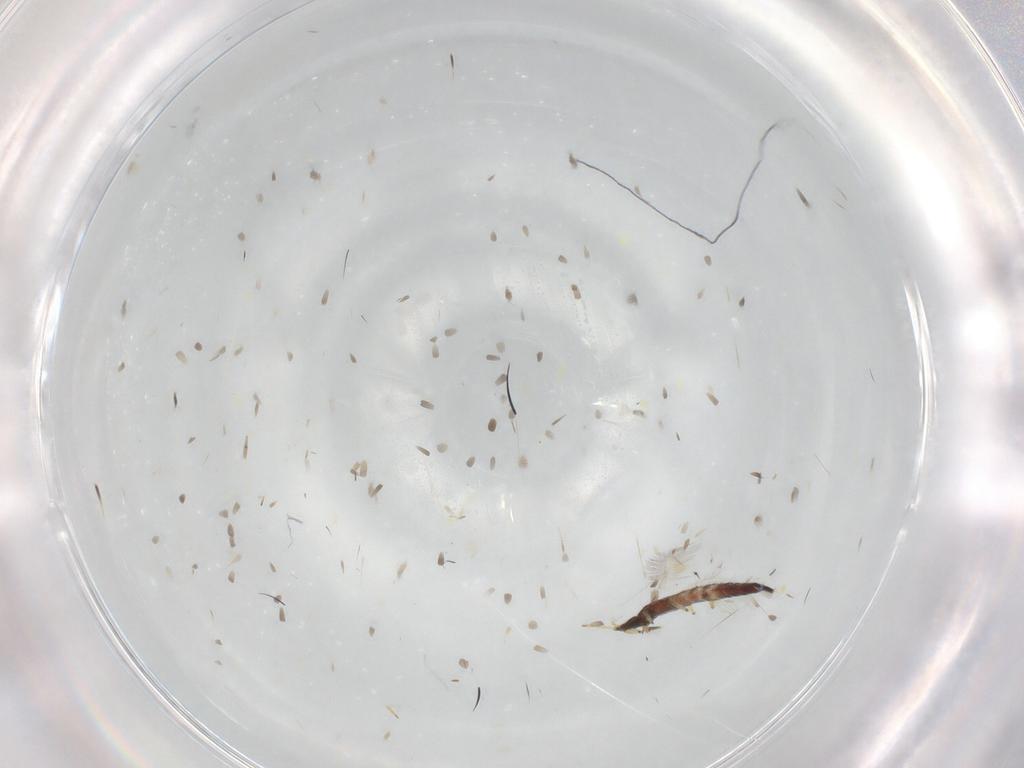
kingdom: Animalia
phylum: Arthropoda
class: Insecta
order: Thysanoptera
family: Phlaeothripidae
